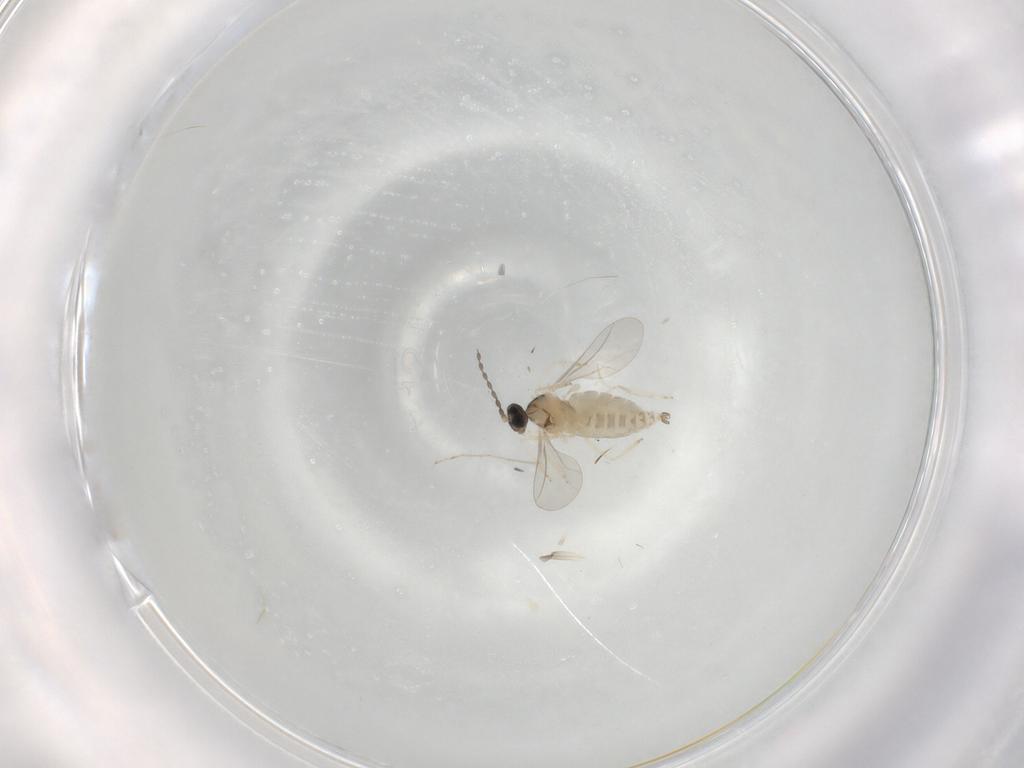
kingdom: Animalia
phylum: Arthropoda
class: Insecta
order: Diptera
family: Cecidomyiidae
